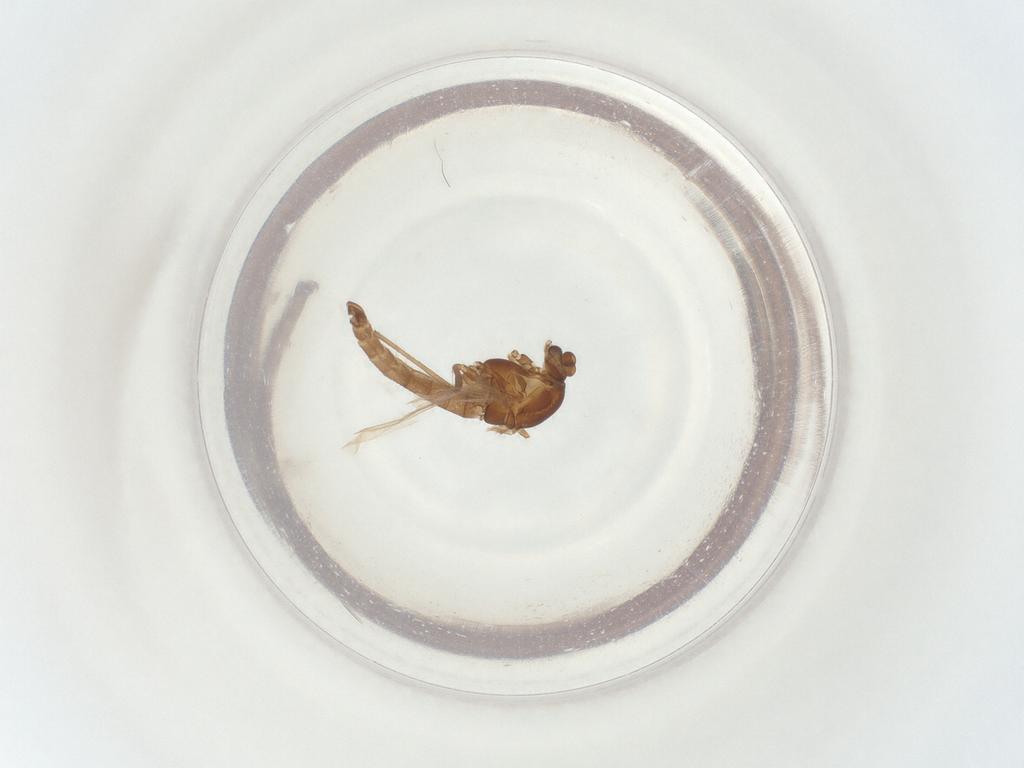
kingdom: Animalia
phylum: Arthropoda
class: Insecta
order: Diptera
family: Chironomidae
